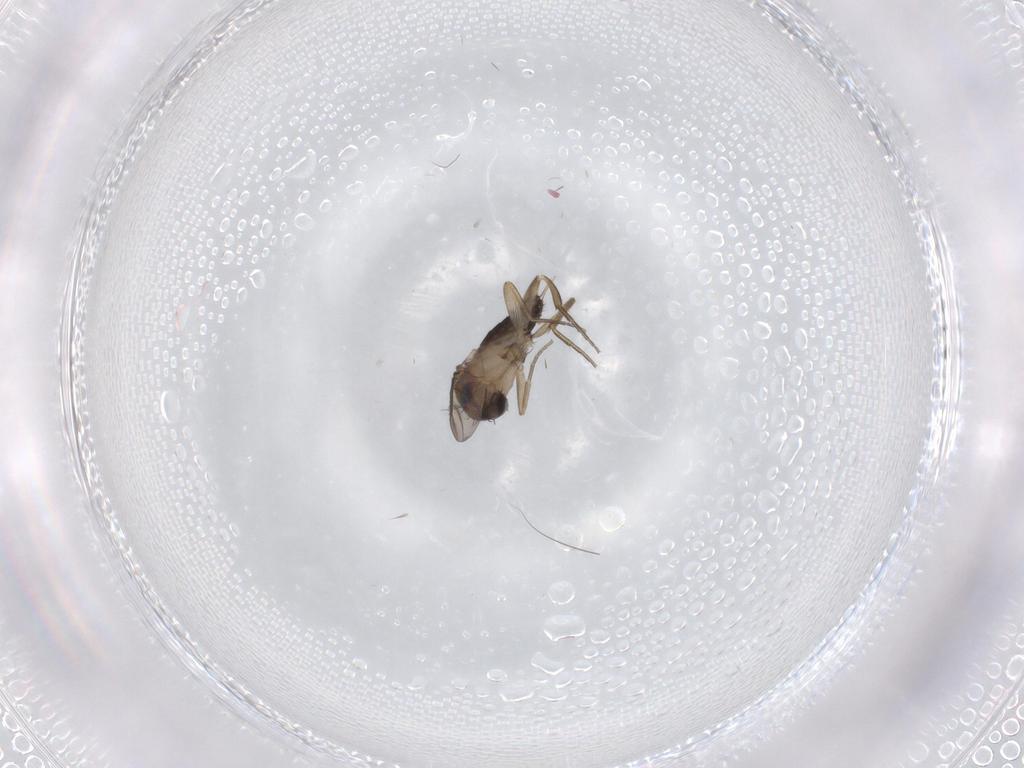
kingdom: Animalia
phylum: Arthropoda
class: Insecta
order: Diptera
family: Phoridae
